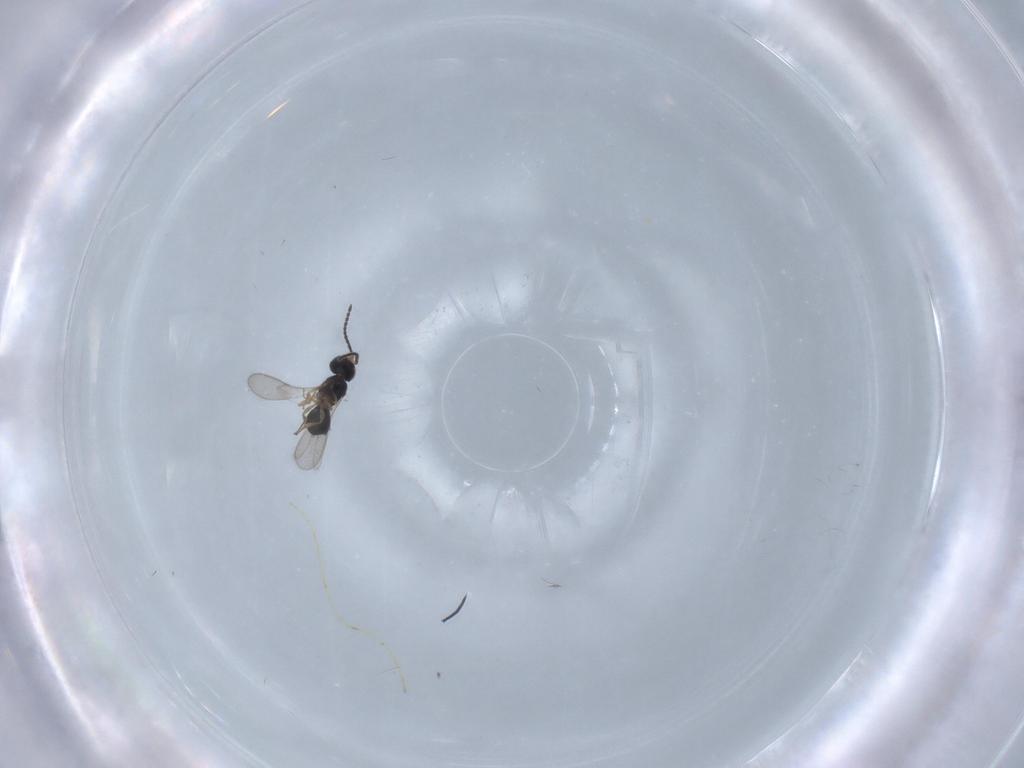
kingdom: Animalia
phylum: Arthropoda
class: Insecta
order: Hymenoptera
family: Scelionidae
